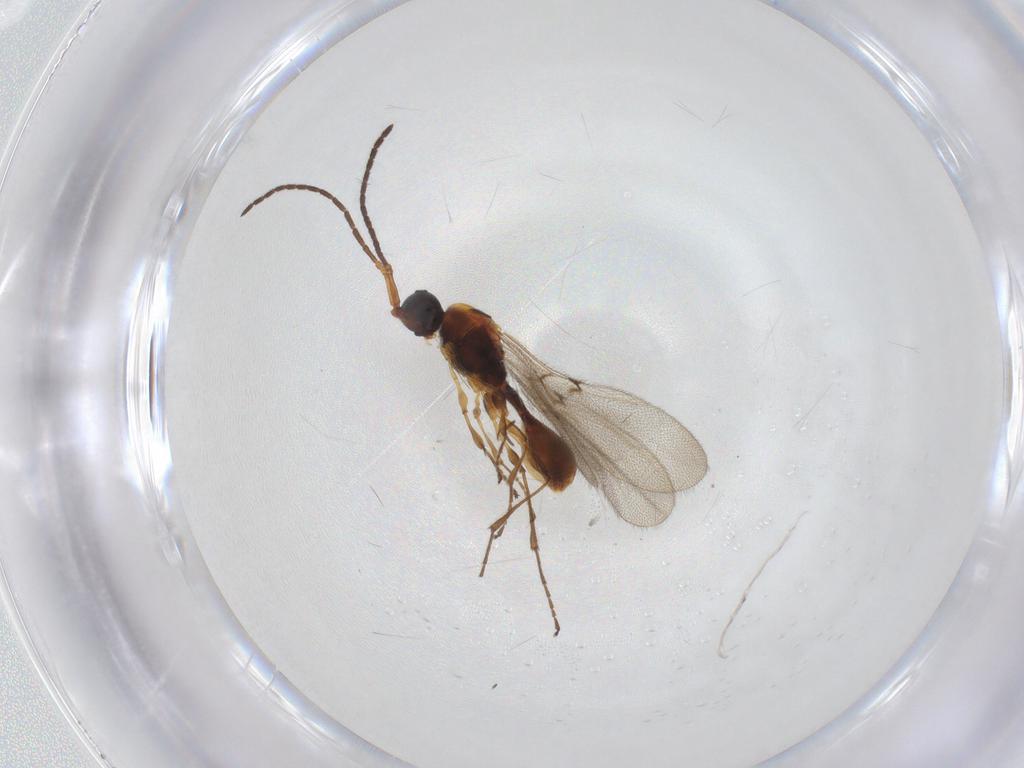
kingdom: Animalia
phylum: Arthropoda
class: Insecta
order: Hymenoptera
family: Diapriidae
